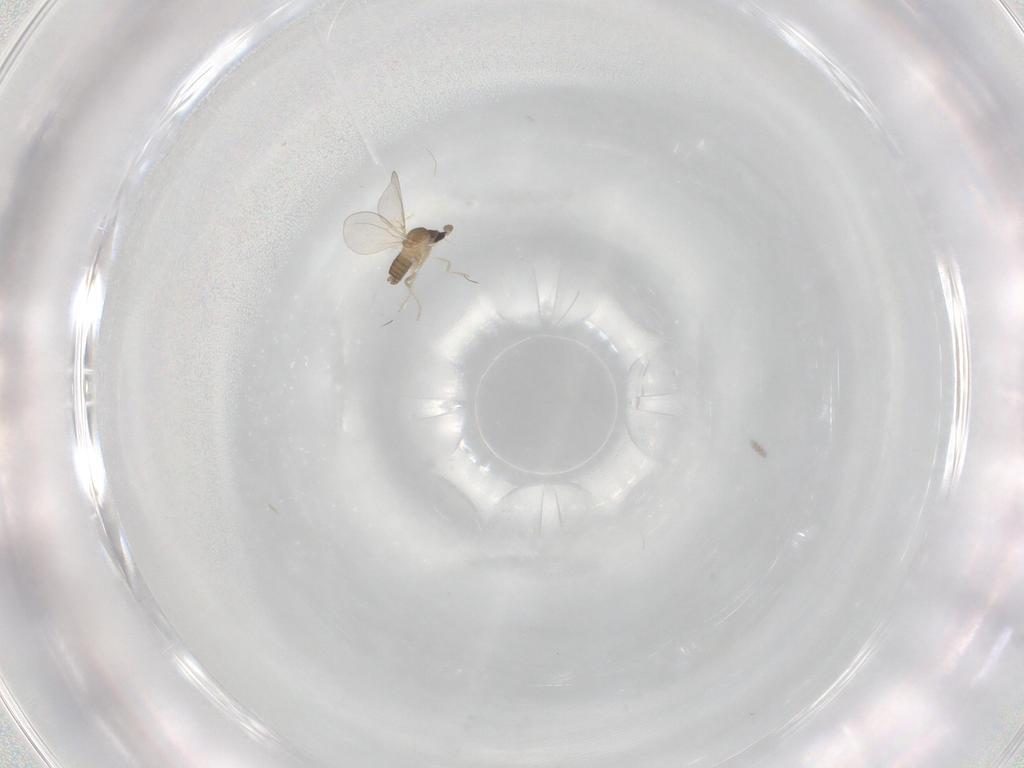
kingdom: Animalia
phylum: Arthropoda
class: Insecta
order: Diptera
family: Cecidomyiidae
